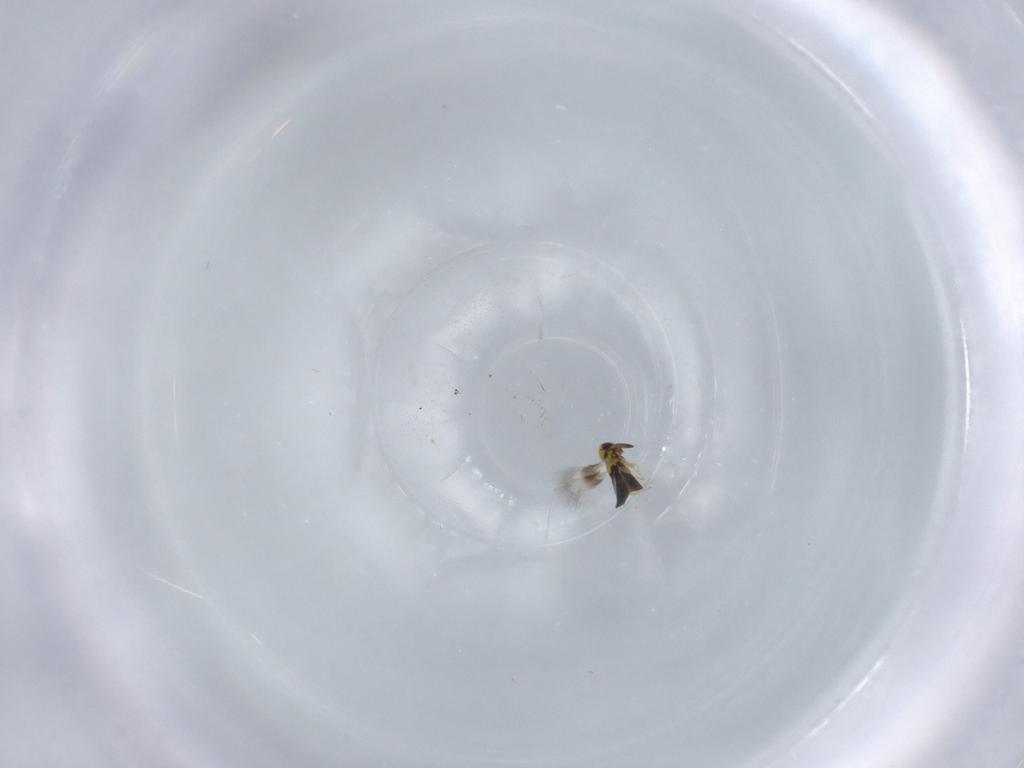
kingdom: Animalia
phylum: Arthropoda
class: Insecta
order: Hymenoptera
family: Signiphoridae
